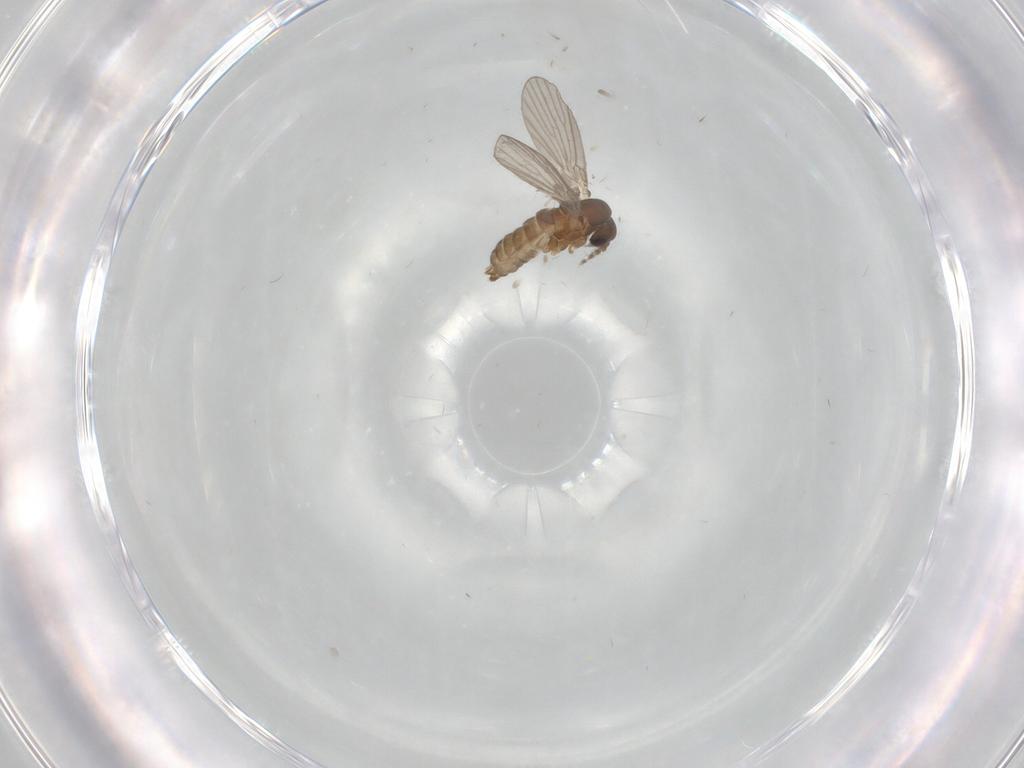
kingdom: Animalia
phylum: Arthropoda
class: Insecta
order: Diptera
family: Cecidomyiidae
